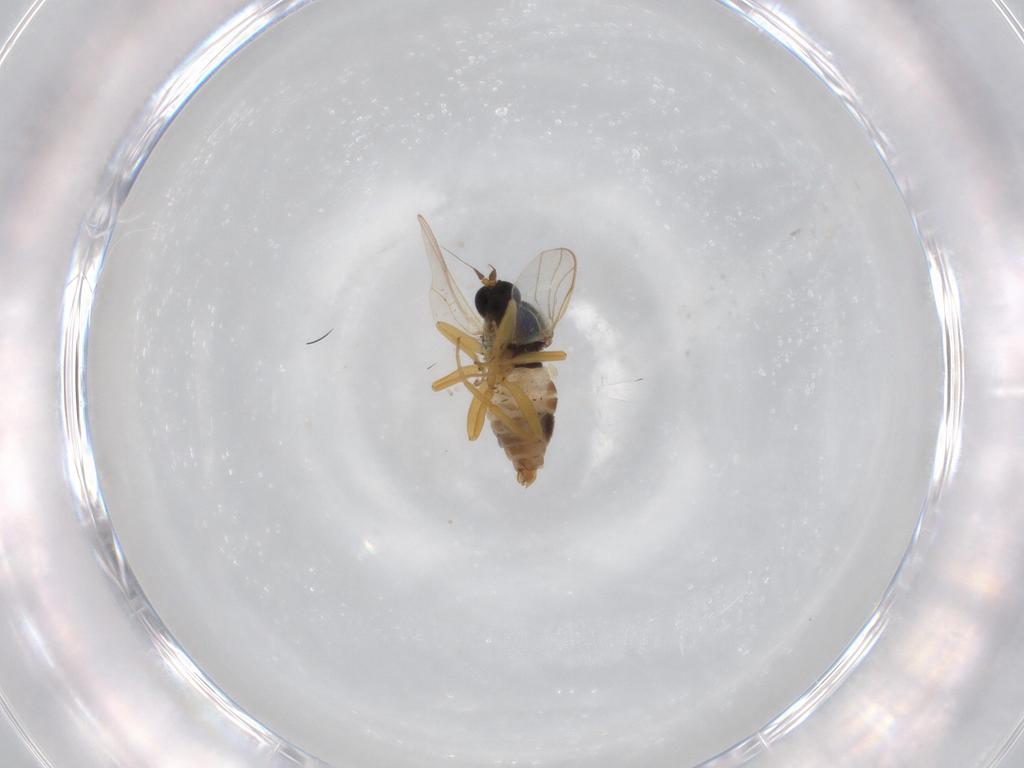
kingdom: Animalia
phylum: Arthropoda
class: Insecta
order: Diptera
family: Hybotidae
